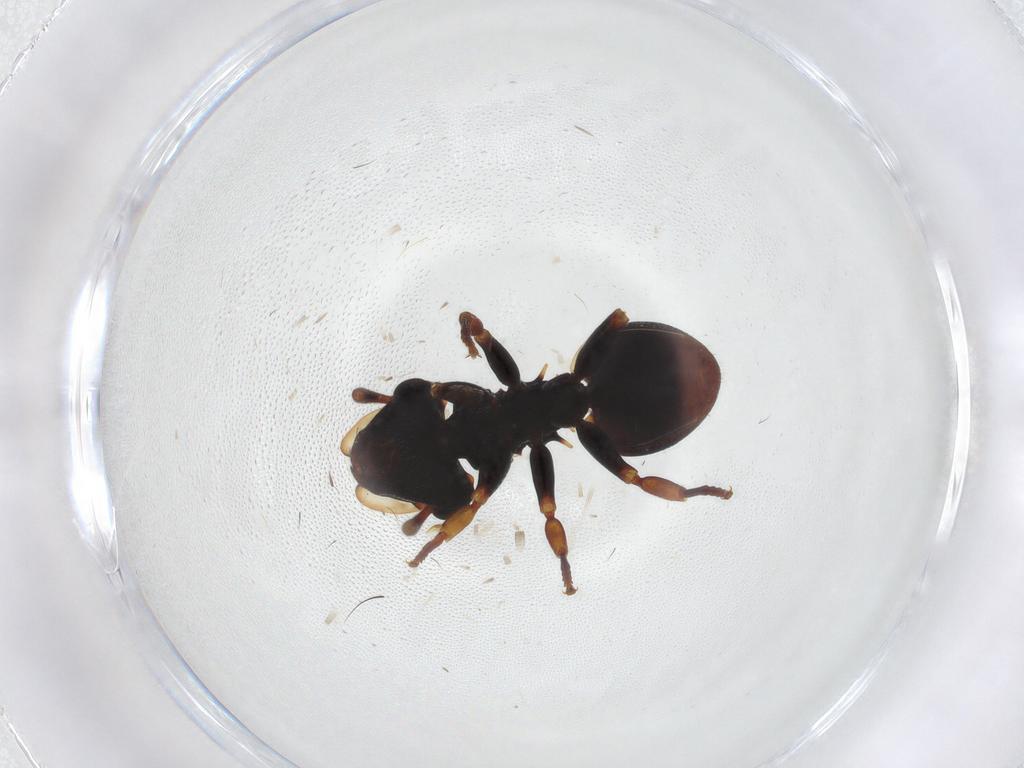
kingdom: Animalia
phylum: Arthropoda
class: Insecta
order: Hymenoptera
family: Formicidae
